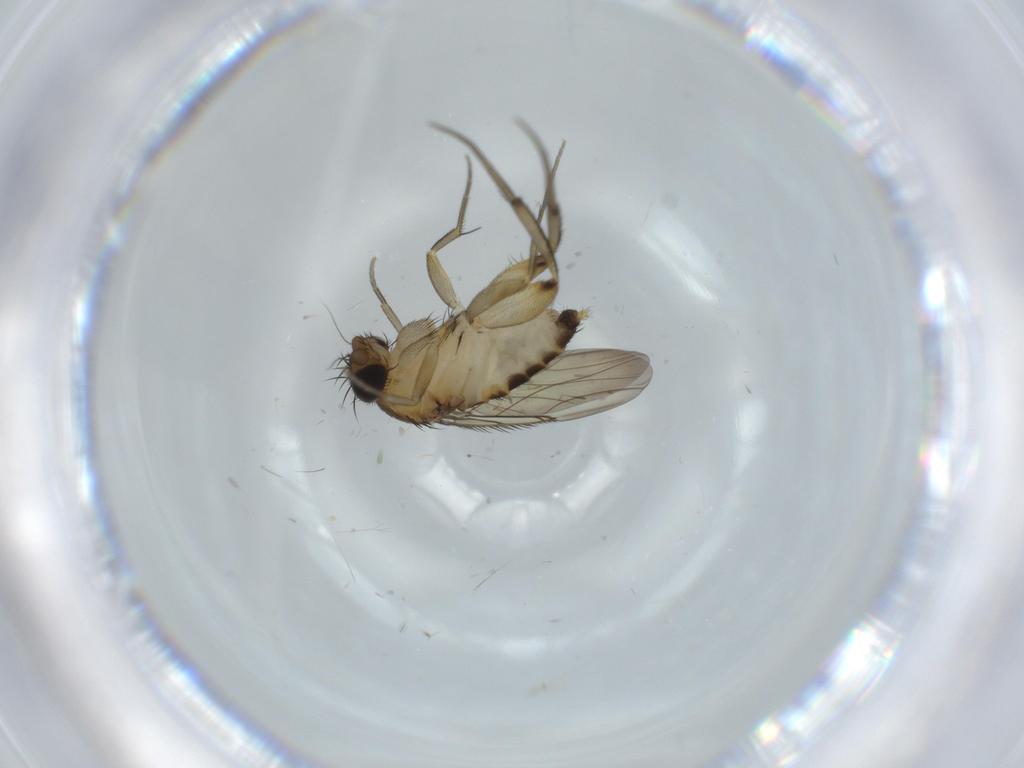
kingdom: Animalia
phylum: Arthropoda
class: Insecta
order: Diptera
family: Phoridae
